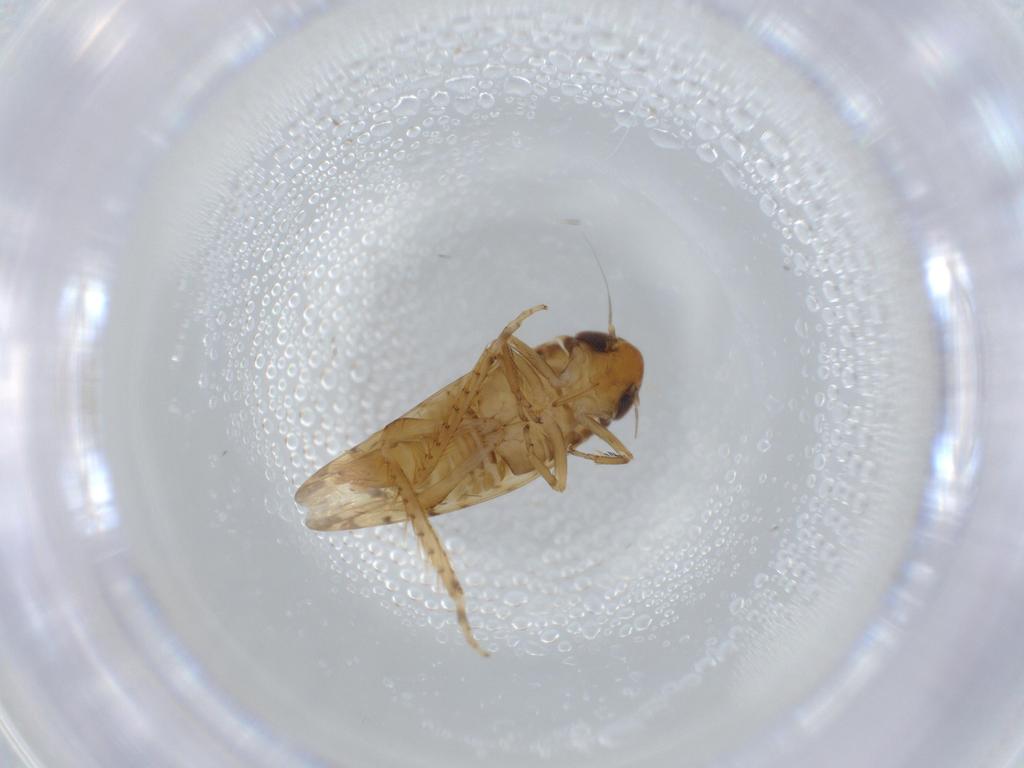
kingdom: Animalia
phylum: Arthropoda
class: Insecta
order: Hemiptera
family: Cicadellidae
